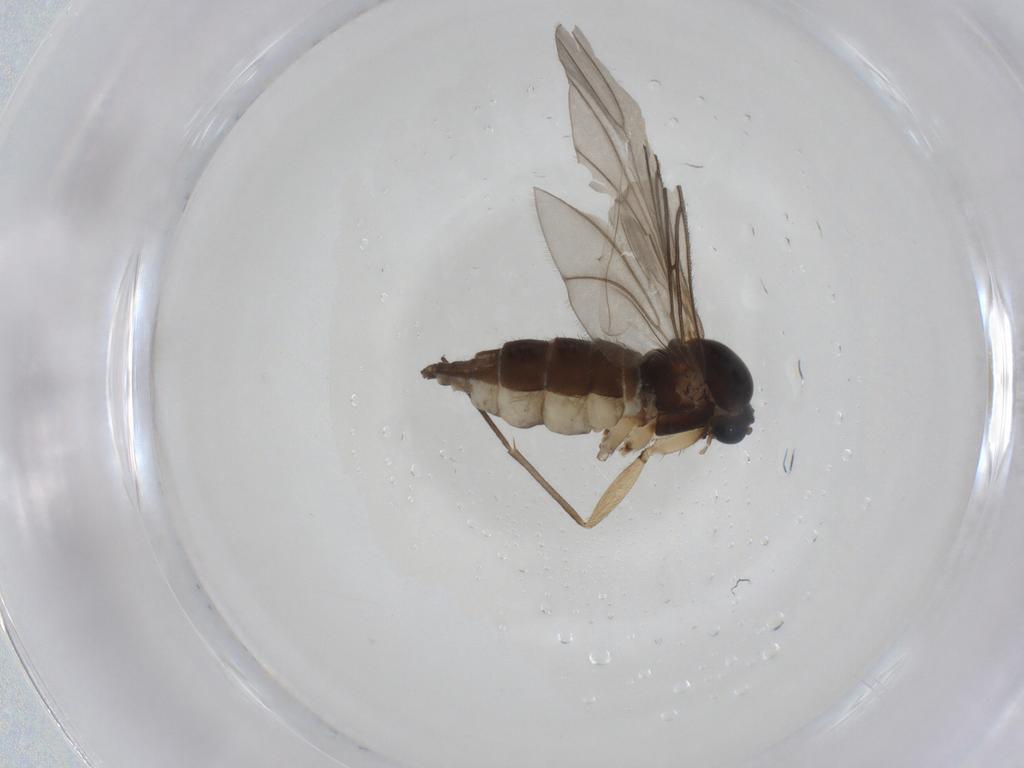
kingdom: Animalia
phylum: Arthropoda
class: Insecta
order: Diptera
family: Sciaridae
